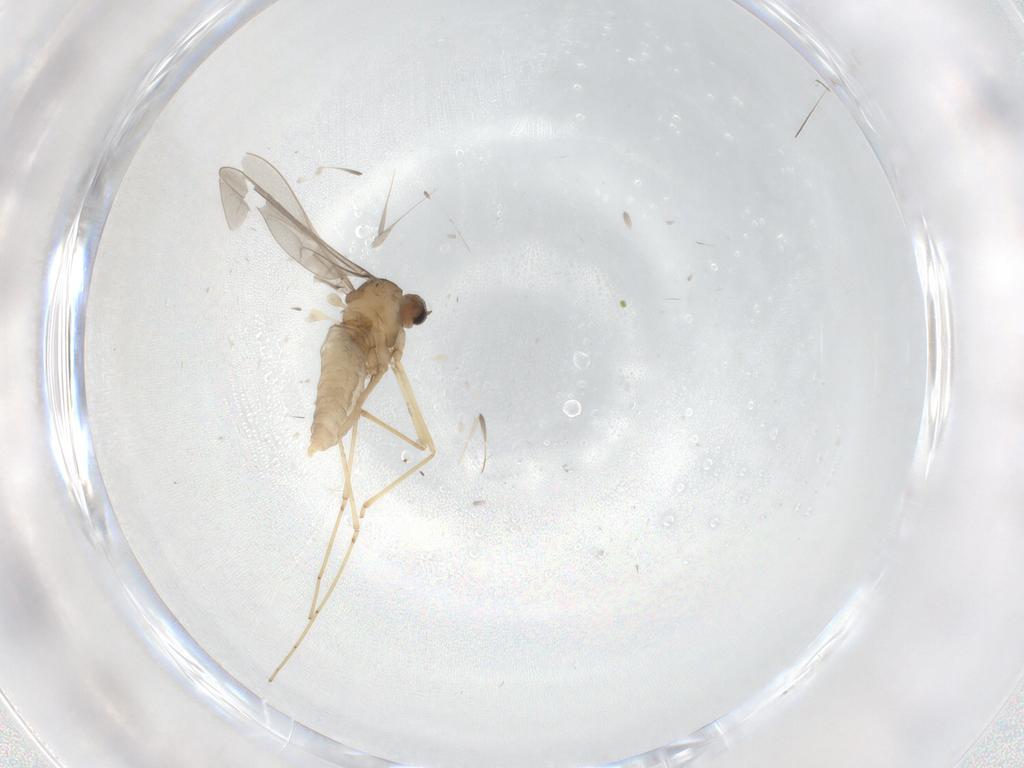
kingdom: Animalia
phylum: Arthropoda
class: Insecta
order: Diptera
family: Cecidomyiidae
